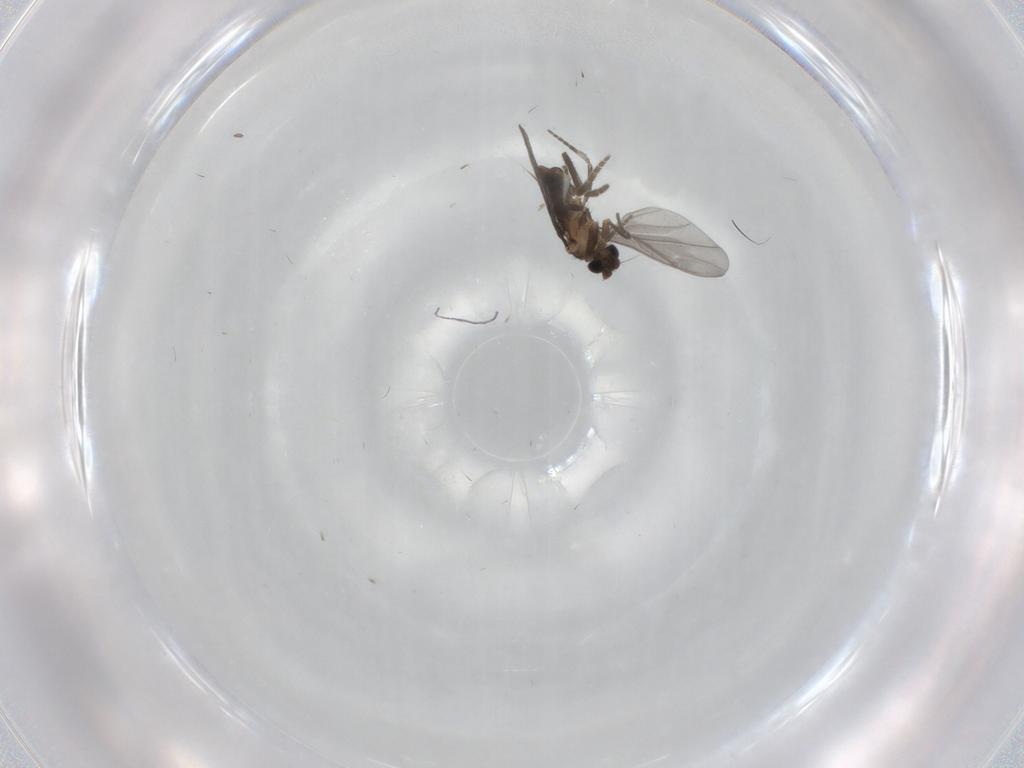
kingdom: Animalia
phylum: Arthropoda
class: Insecta
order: Diptera
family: Phoridae
